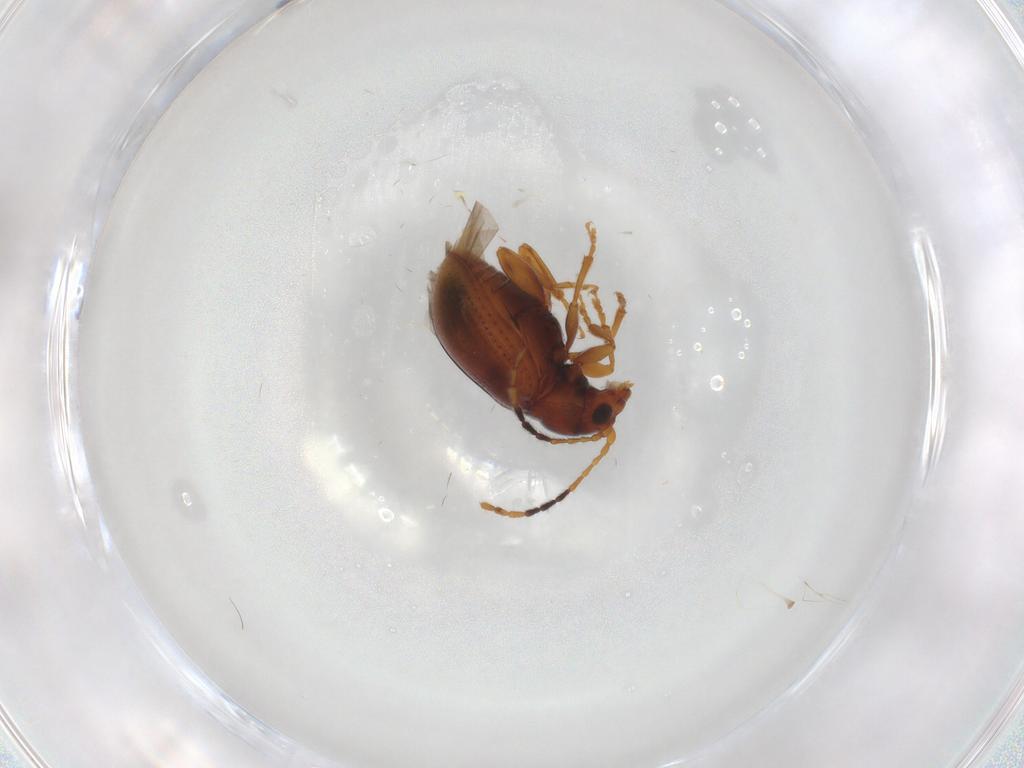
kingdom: Animalia
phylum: Arthropoda
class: Insecta
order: Coleoptera
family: Chrysomelidae
